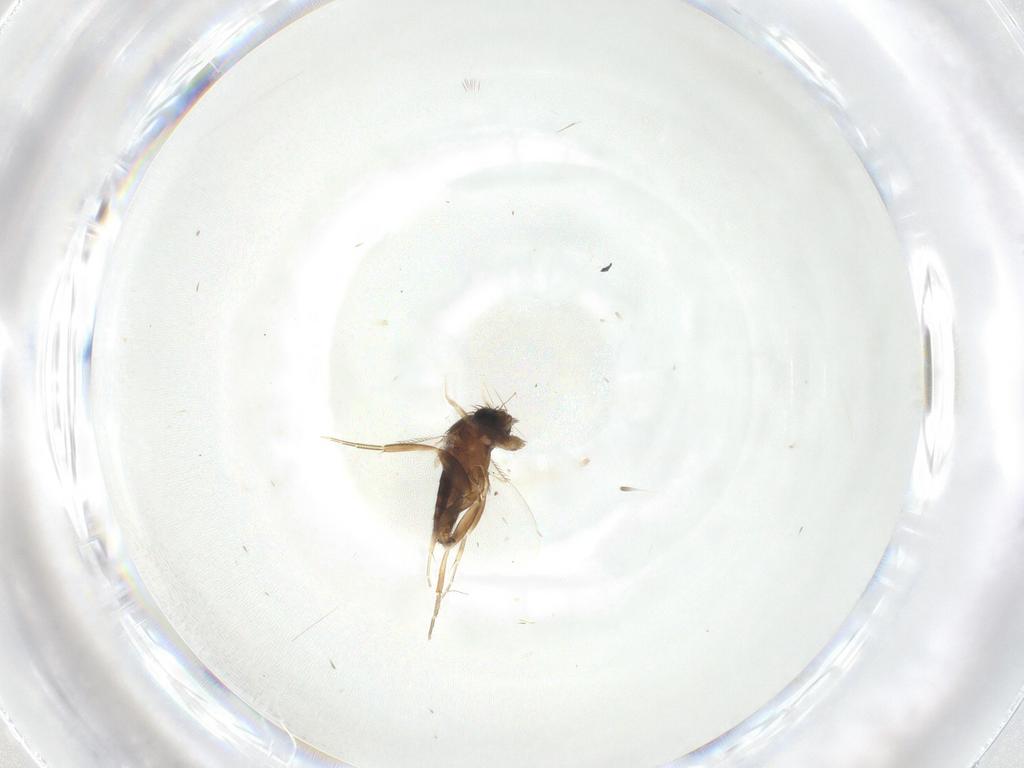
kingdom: Animalia
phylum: Arthropoda
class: Insecta
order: Diptera
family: Phoridae
